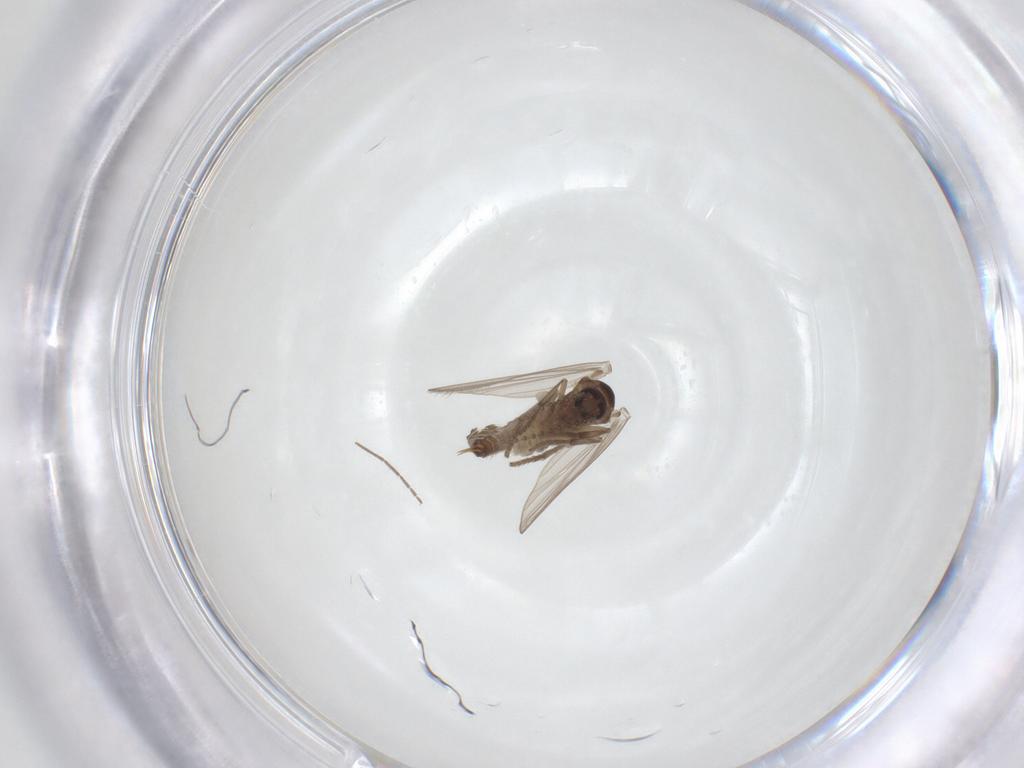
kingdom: Animalia
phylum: Arthropoda
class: Insecta
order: Diptera
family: Psychodidae
